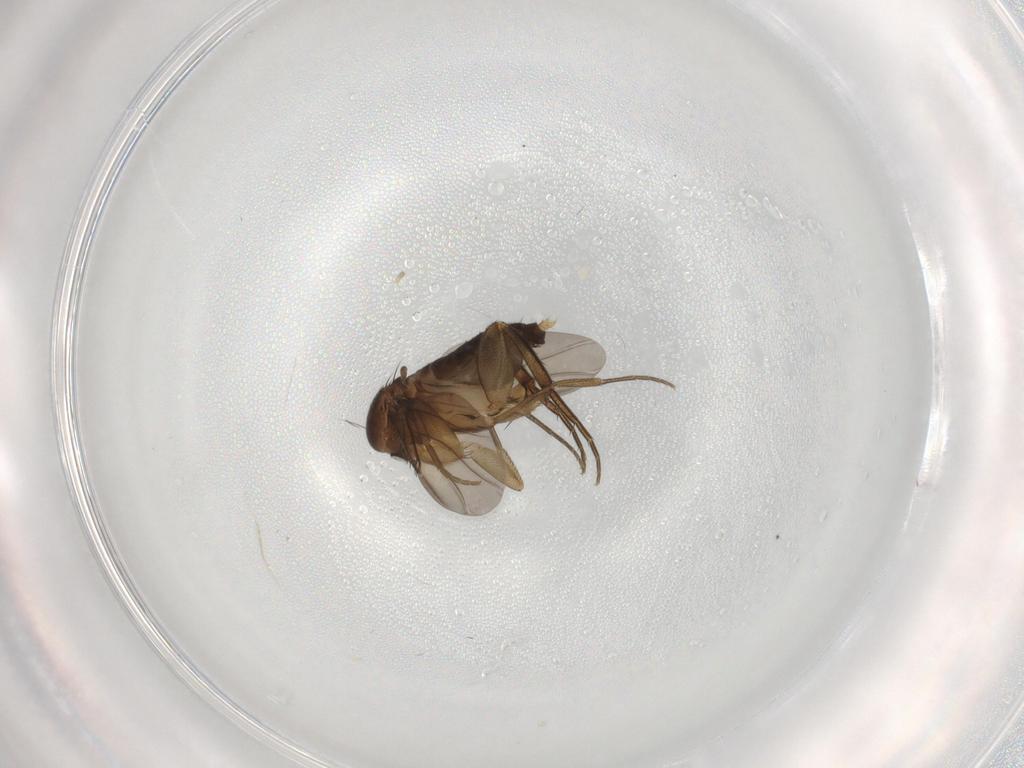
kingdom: Animalia
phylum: Arthropoda
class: Insecta
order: Diptera
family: Phoridae
